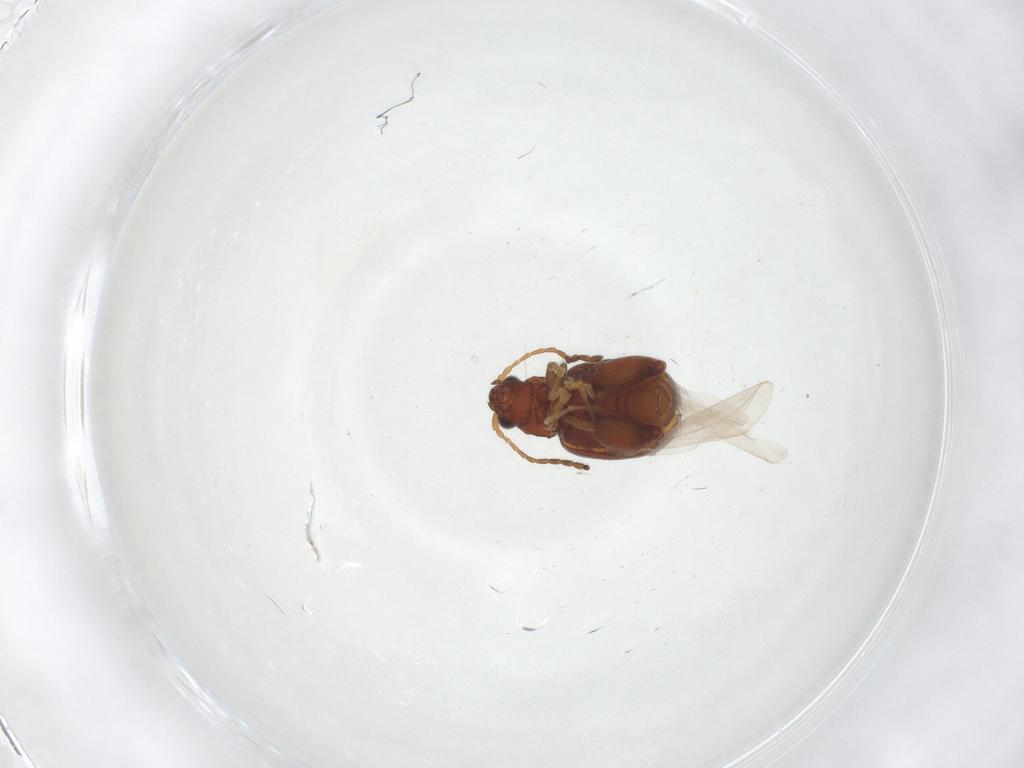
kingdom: Animalia
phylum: Arthropoda
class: Insecta
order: Coleoptera
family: Chrysomelidae
